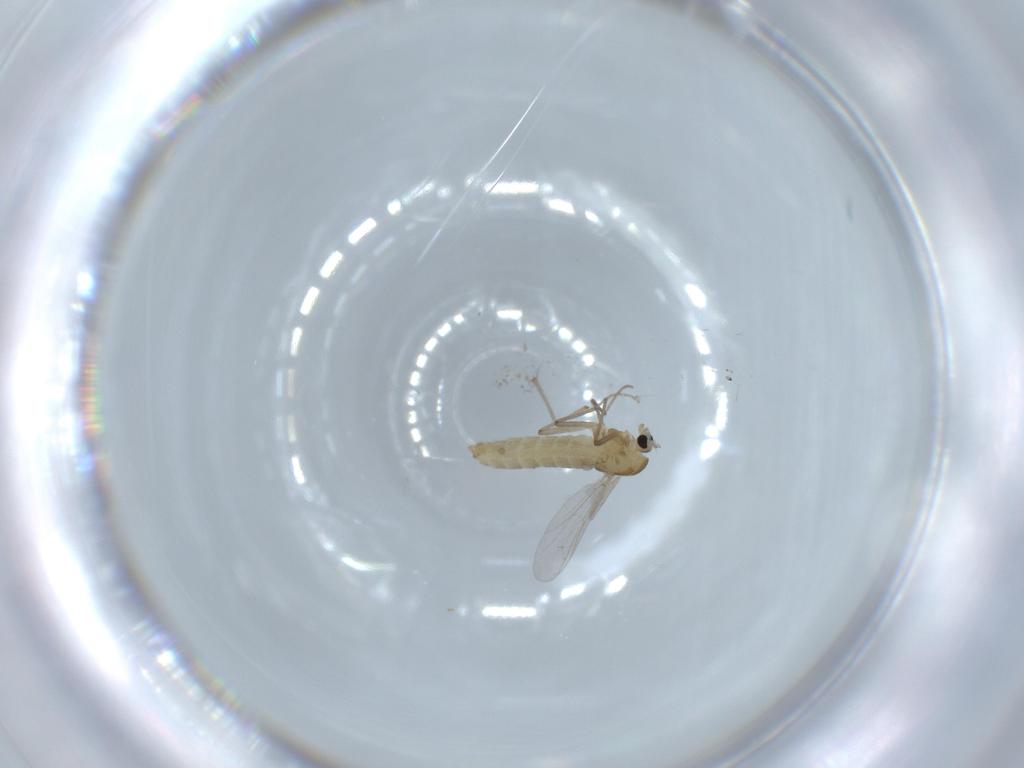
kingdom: Animalia
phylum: Arthropoda
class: Insecta
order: Diptera
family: Chironomidae
